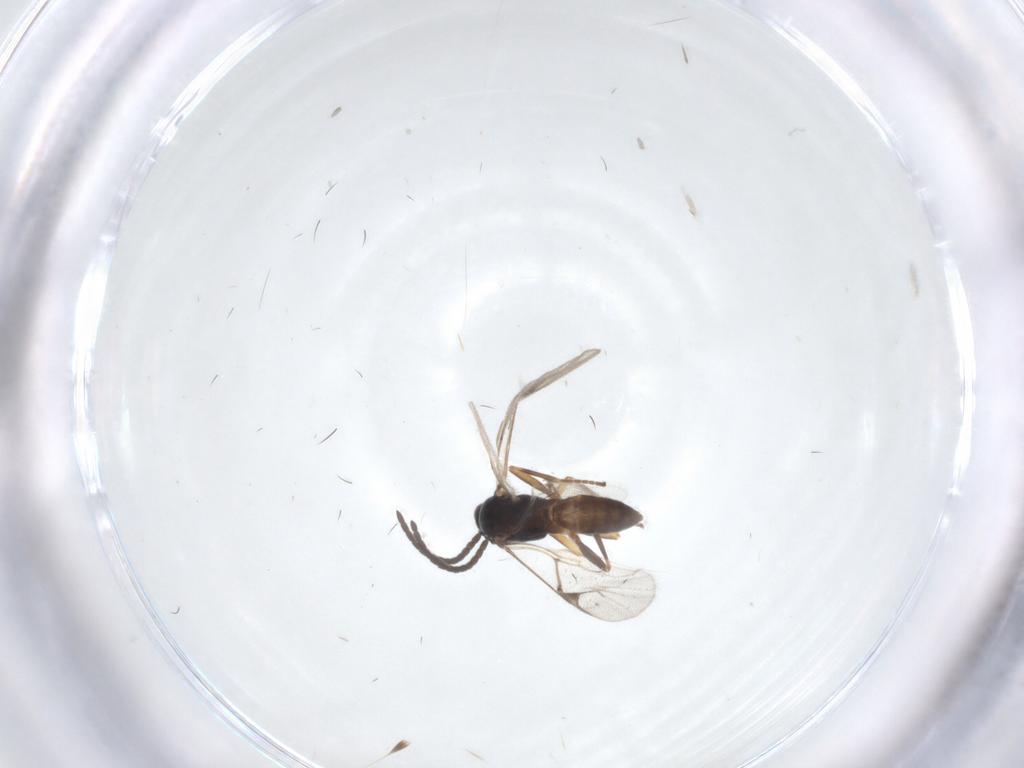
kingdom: Animalia
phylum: Arthropoda
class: Insecta
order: Hymenoptera
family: Braconidae
